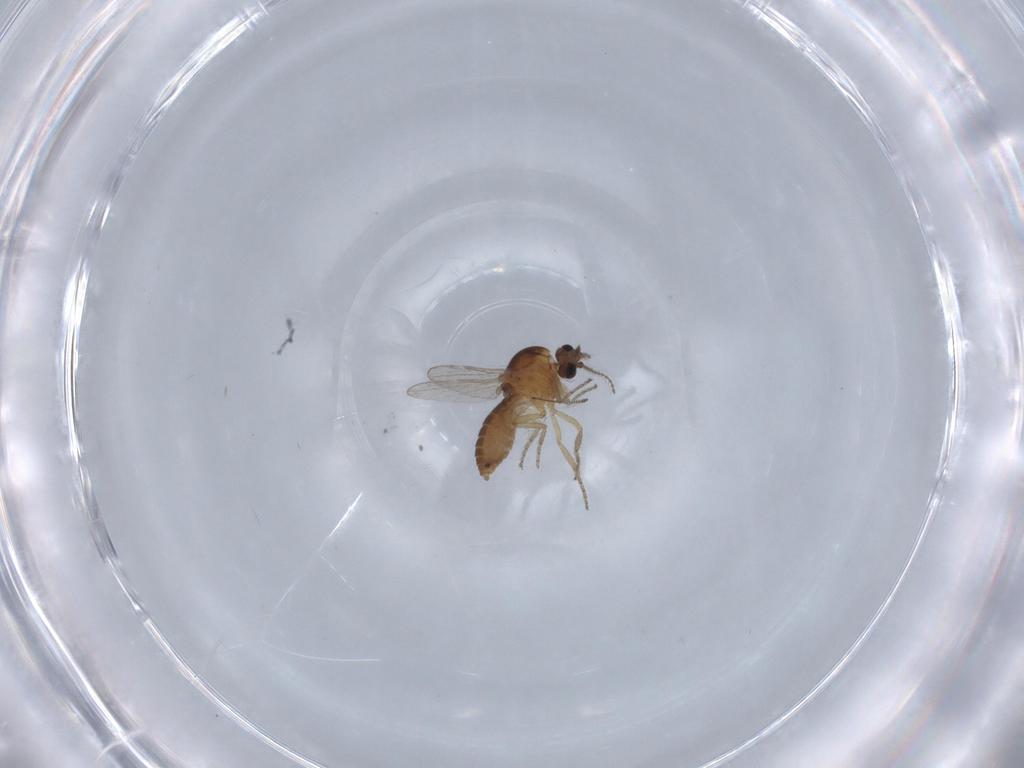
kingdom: Animalia
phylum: Arthropoda
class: Insecta
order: Diptera
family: Ceratopogonidae
